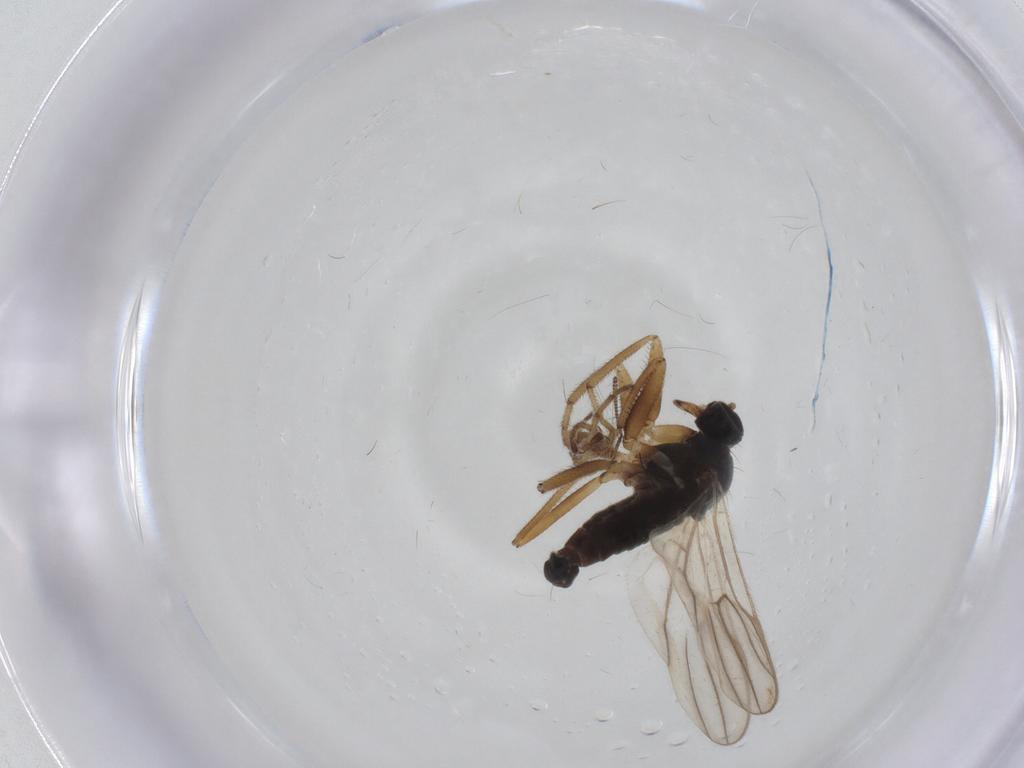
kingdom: Animalia
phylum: Arthropoda
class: Insecta
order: Diptera
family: Hybotidae
